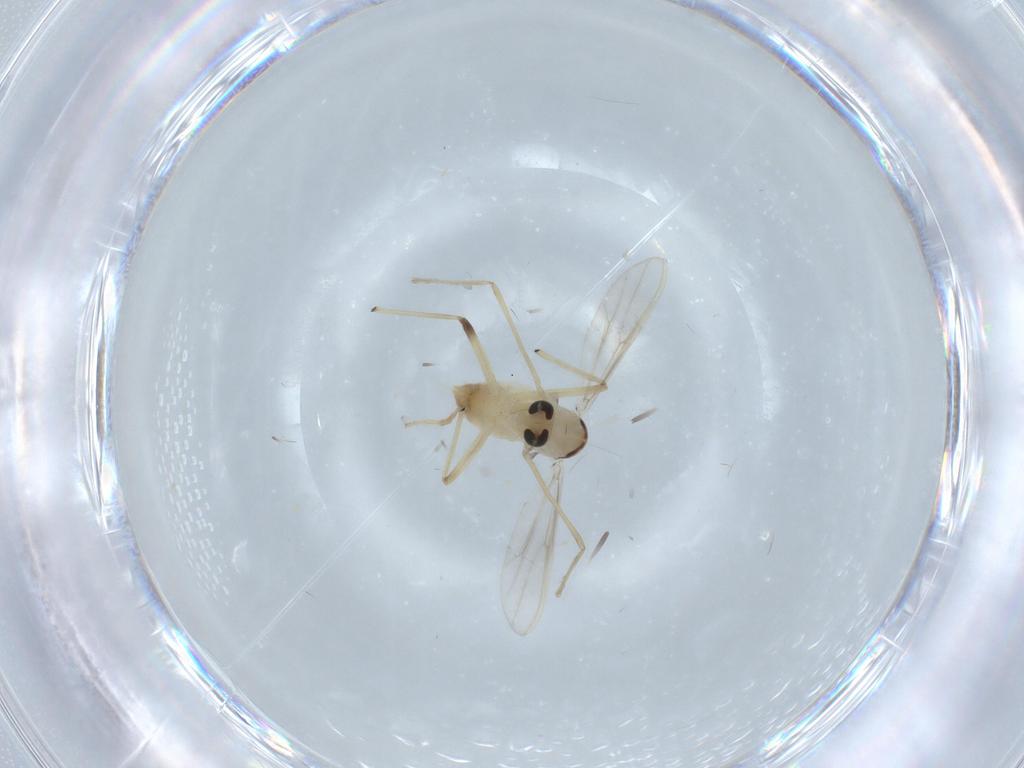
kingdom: Animalia
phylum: Arthropoda
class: Insecta
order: Diptera
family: Chironomidae
